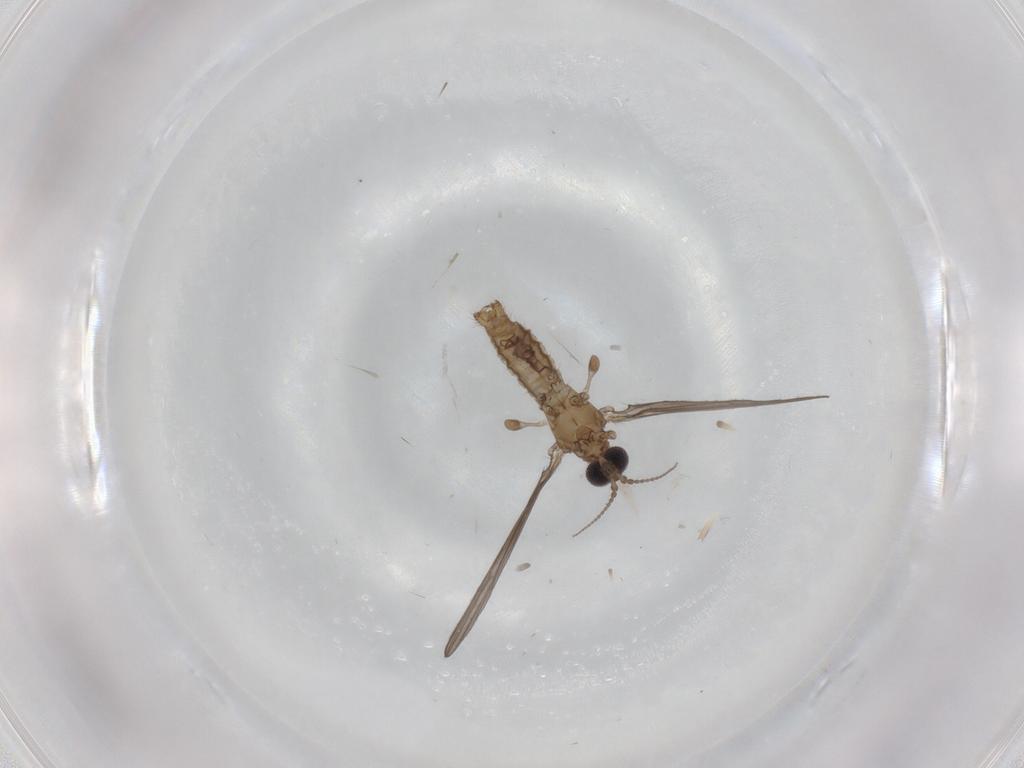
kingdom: Animalia
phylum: Arthropoda
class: Insecta
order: Diptera
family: Limoniidae
